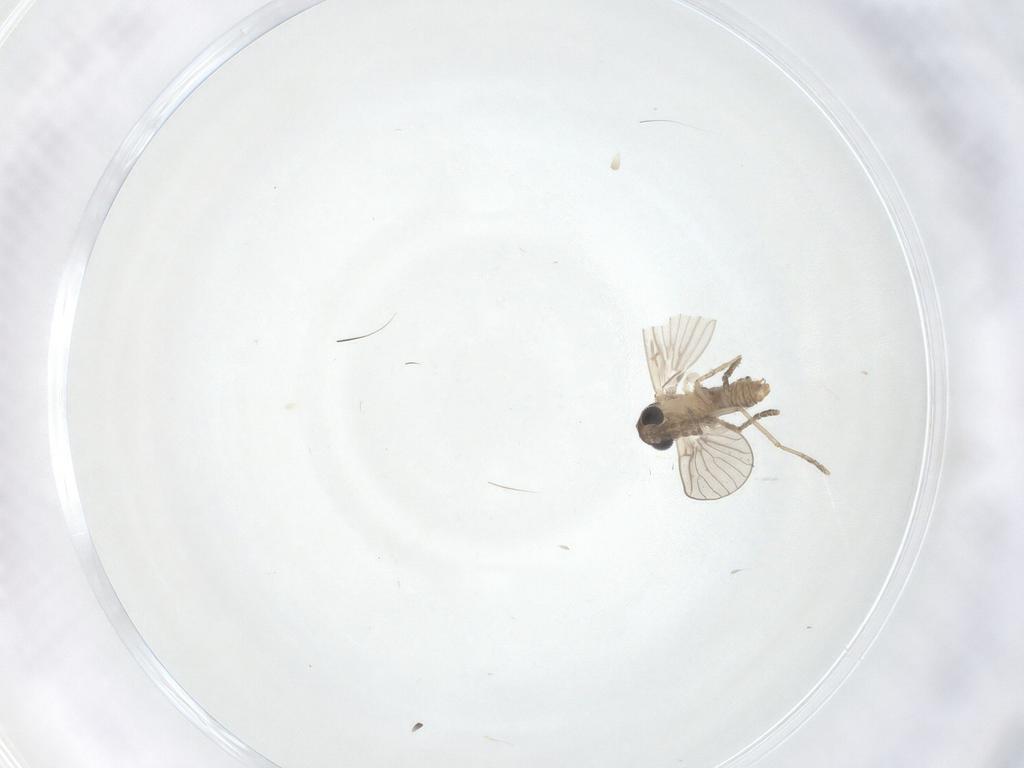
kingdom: Animalia
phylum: Arthropoda
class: Insecta
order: Diptera
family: Psychodidae
